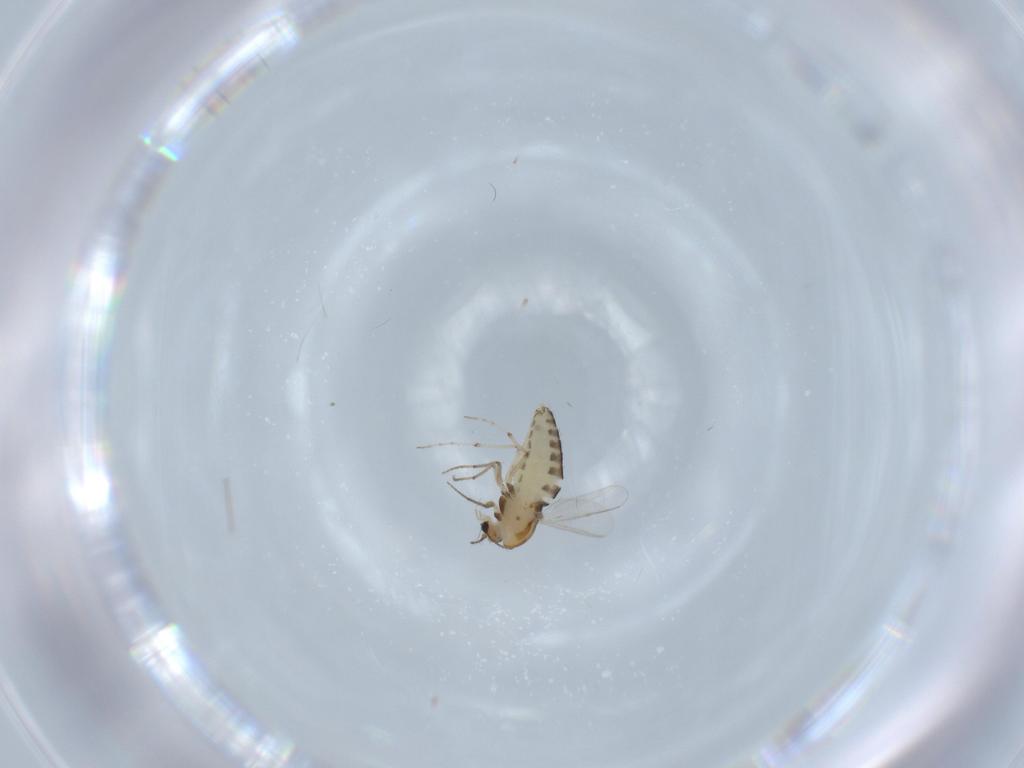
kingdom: Animalia
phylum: Arthropoda
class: Insecta
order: Diptera
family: Chironomidae
